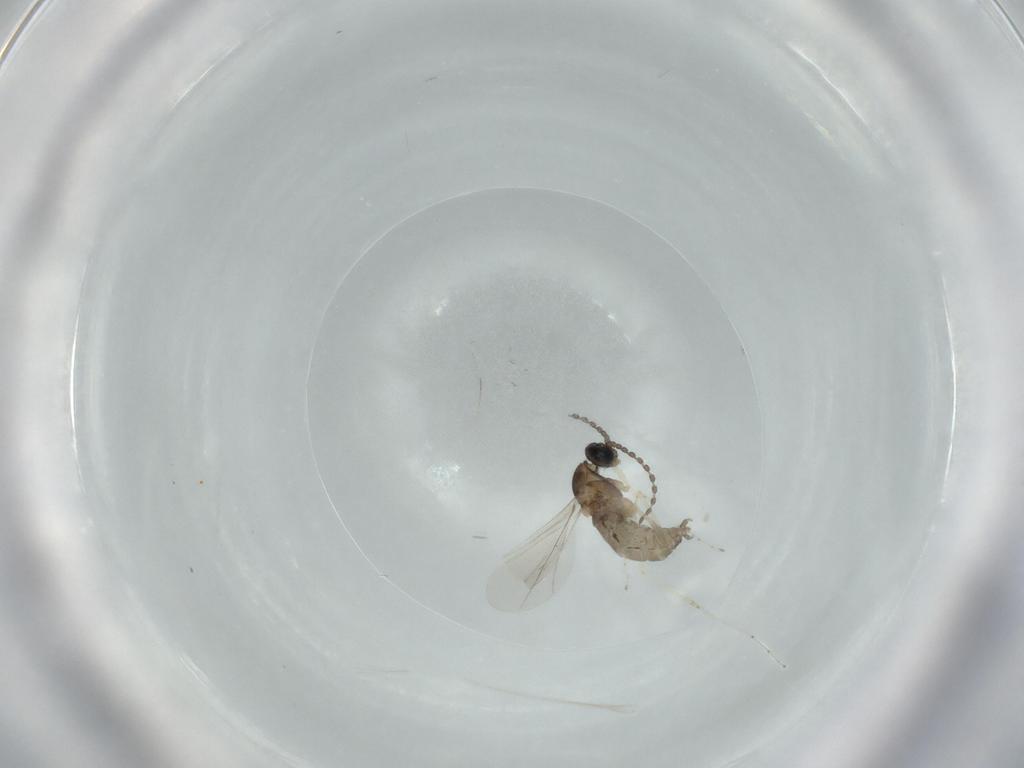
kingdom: Animalia
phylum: Arthropoda
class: Insecta
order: Diptera
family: Cecidomyiidae
